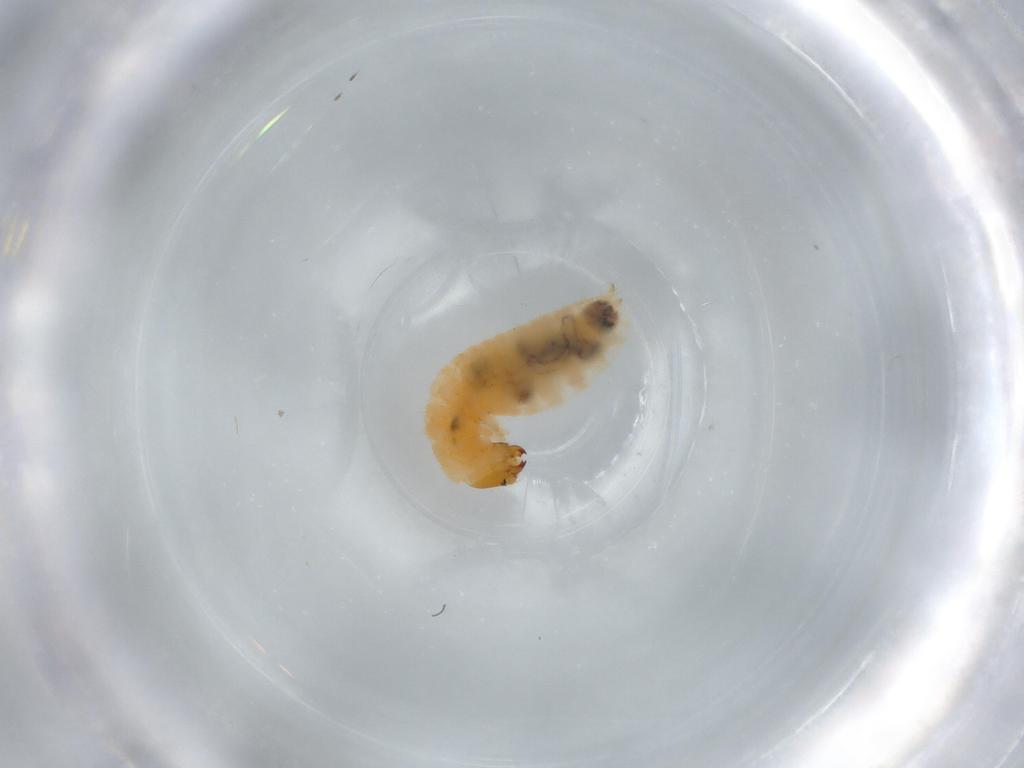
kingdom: Animalia
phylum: Arthropoda
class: Insecta
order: Coleoptera
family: Melyridae
